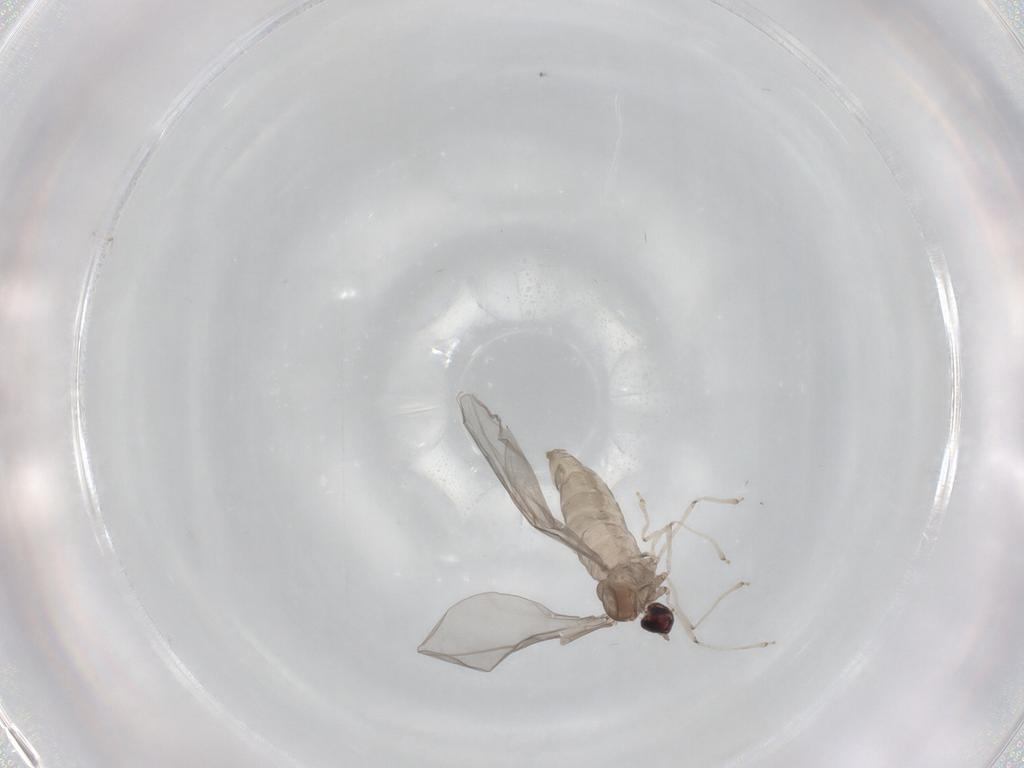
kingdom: Animalia
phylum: Arthropoda
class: Insecta
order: Diptera
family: Cecidomyiidae
